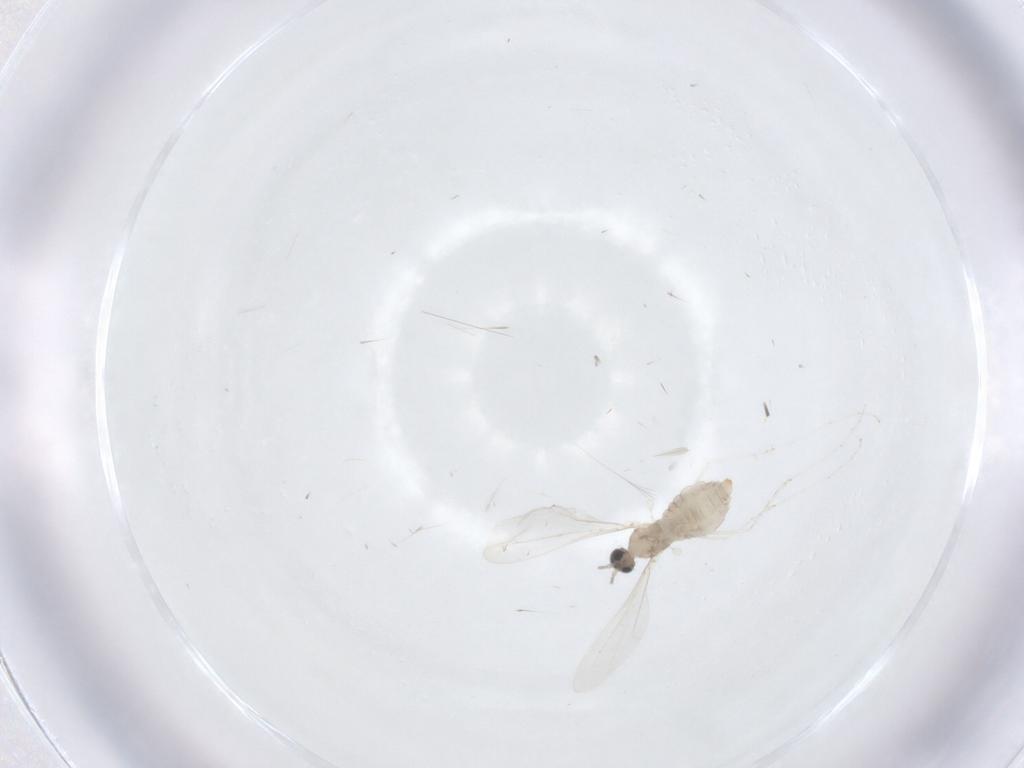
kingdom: Animalia
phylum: Arthropoda
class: Insecta
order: Diptera
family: Cecidomyiidae
